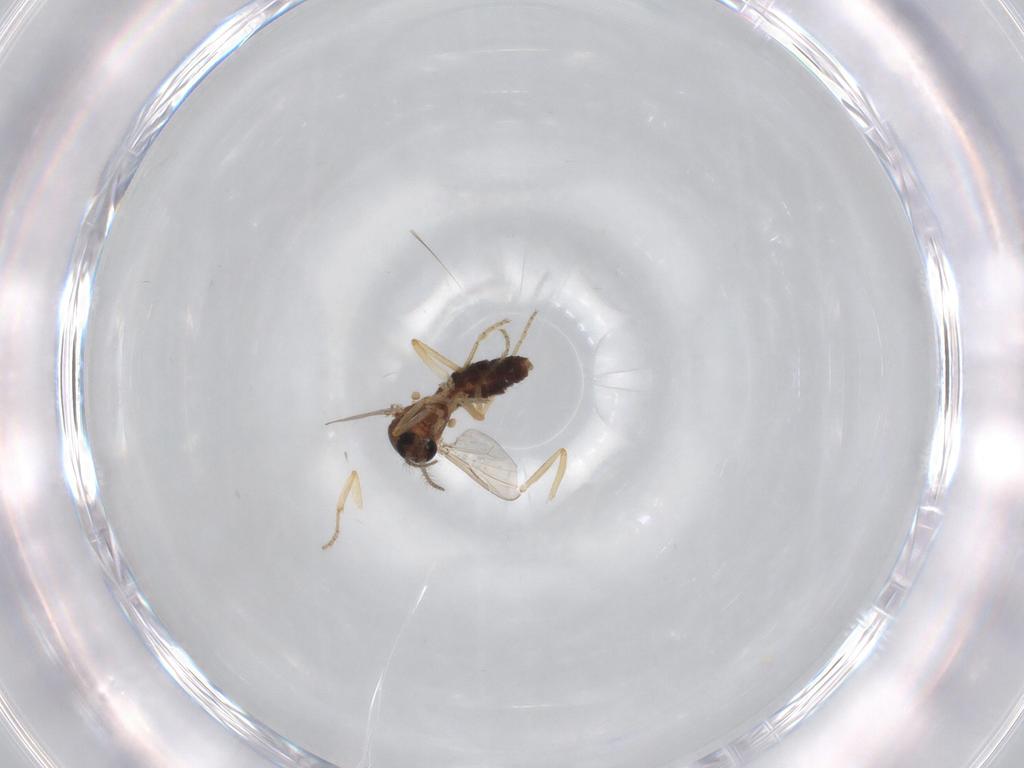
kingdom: Animalia
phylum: Arthropoda
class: Insecta
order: Diptera
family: Ceratopogonidae
